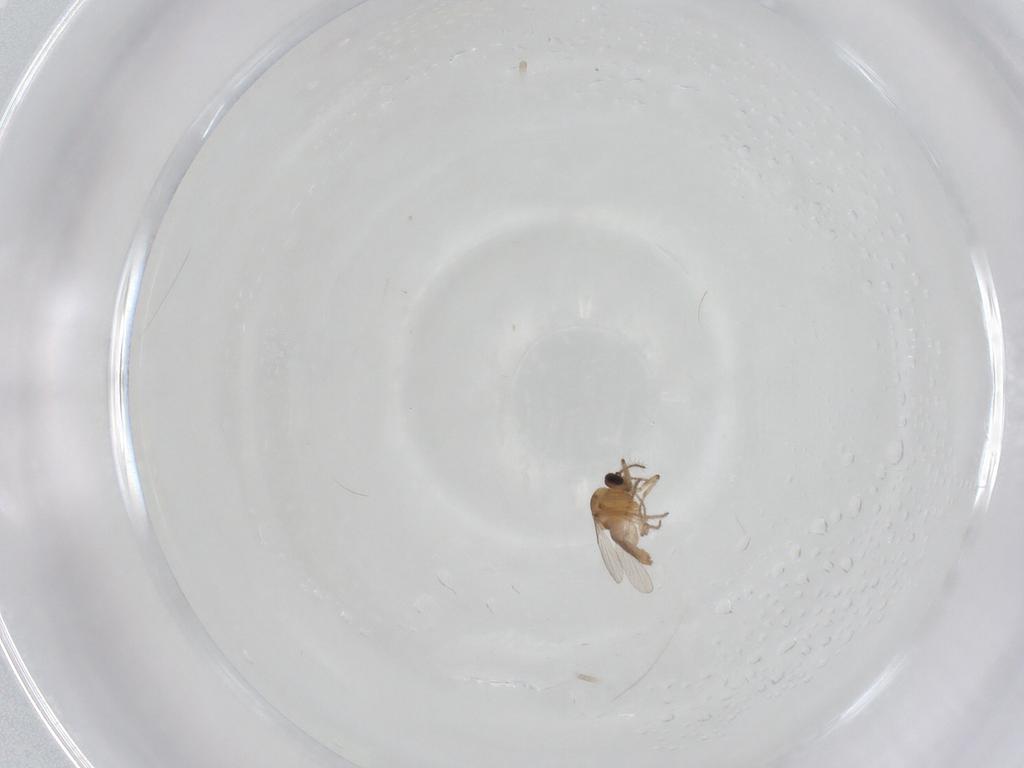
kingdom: Animalia
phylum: Arthropoda
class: Insecta
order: Diptera
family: Ceratopogonidae
